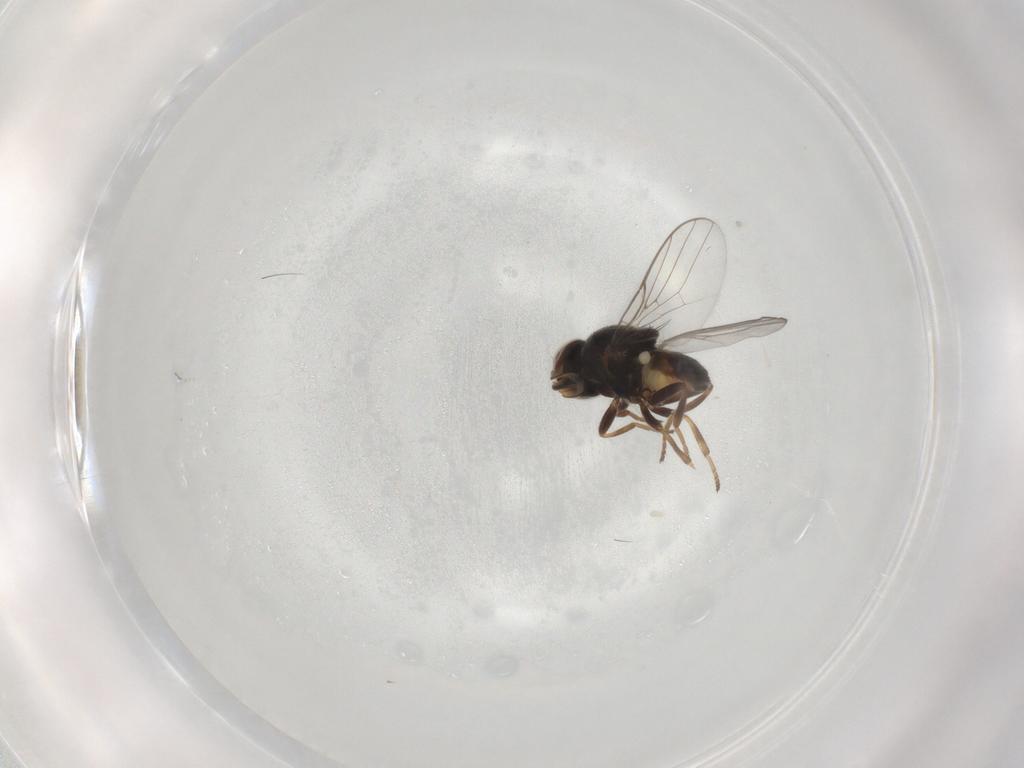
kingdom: Animalia
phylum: Arthropoda
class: Insecta
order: Diptera
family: Chloropidae
